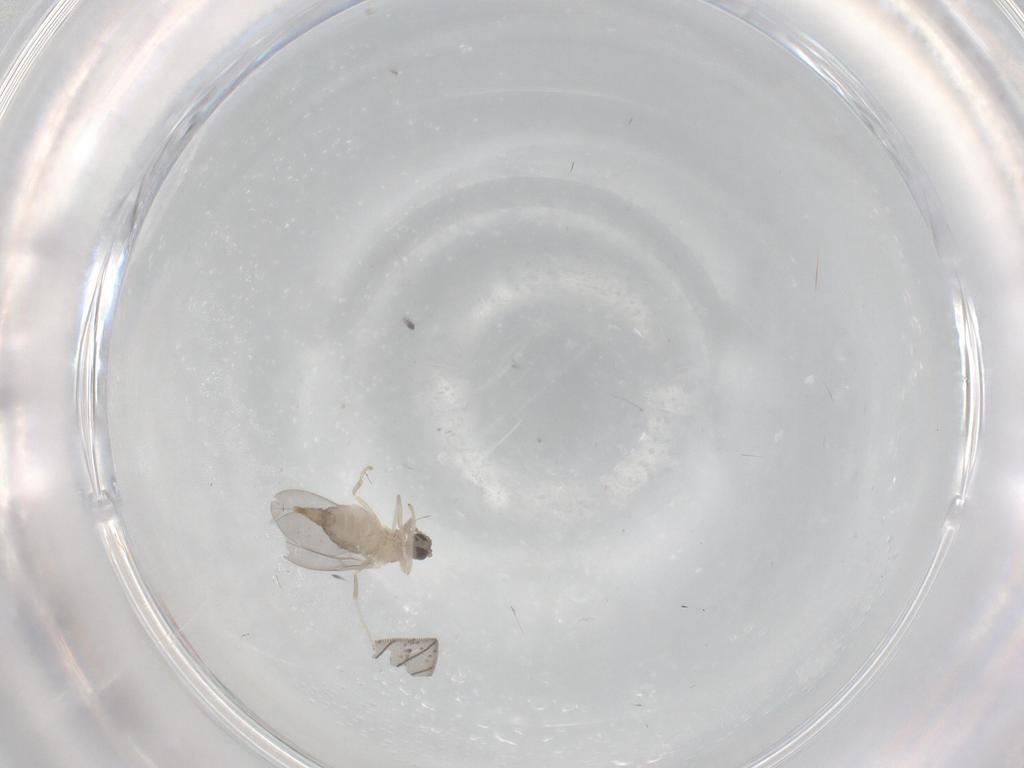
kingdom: Animalia
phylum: Arthropoda
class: Insecta
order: Diptera
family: Cecidomyiidae
